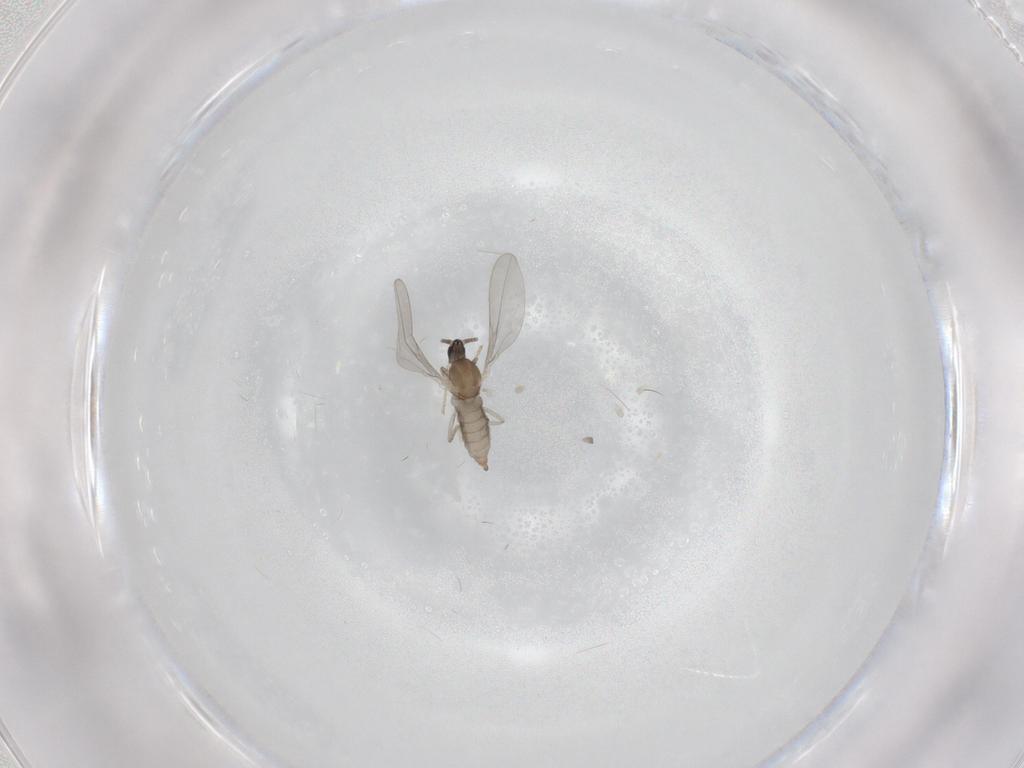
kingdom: Animalia
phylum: Arthropoda
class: Insecta
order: Diptera
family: Cecidomyiidae
